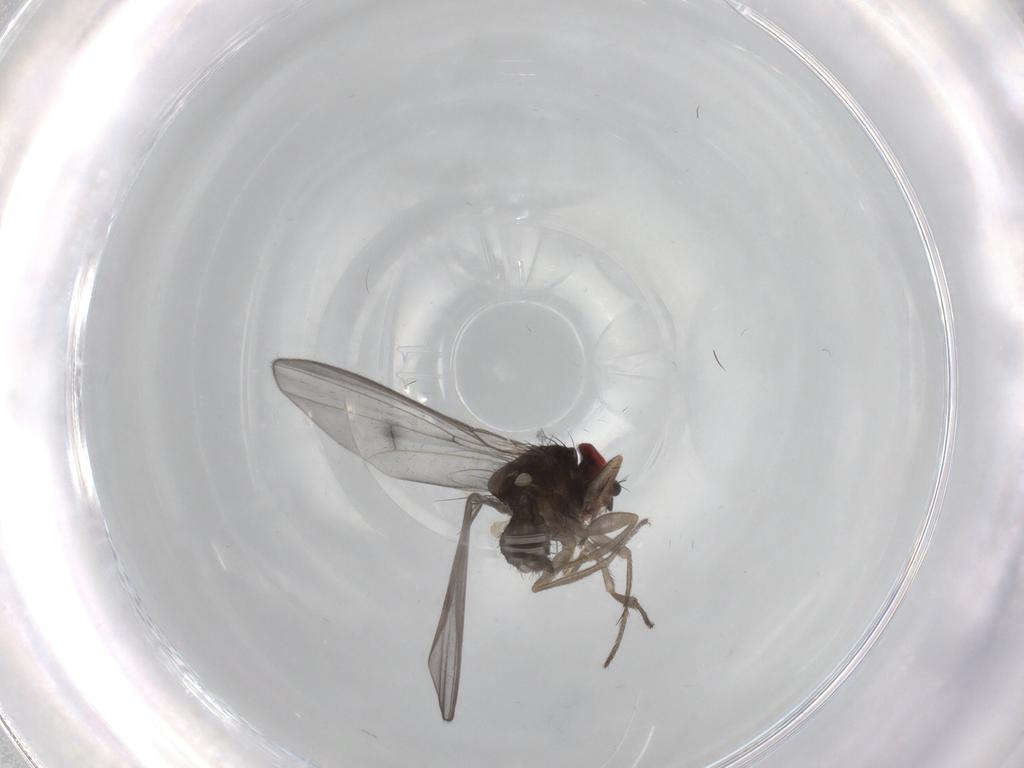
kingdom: Animalia
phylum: Arthropoda
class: Insecta
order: Diptera
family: Drosophilidae
